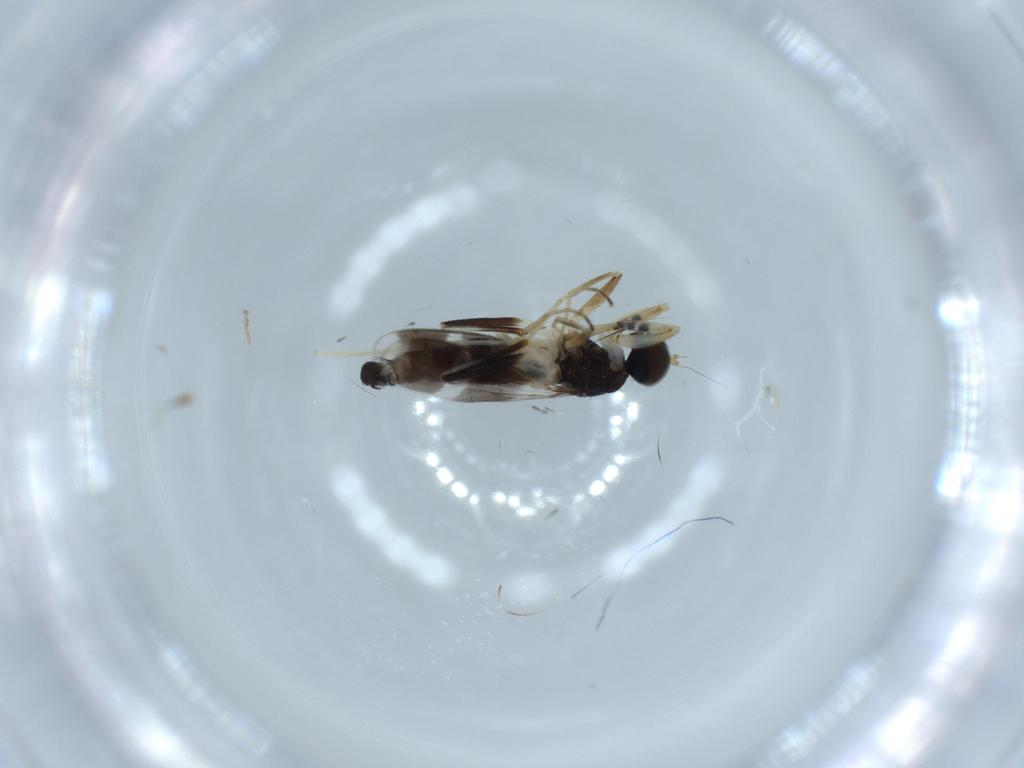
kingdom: Animalia
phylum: Arthropoda
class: Insecta
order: Diptera
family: Hybotidae
